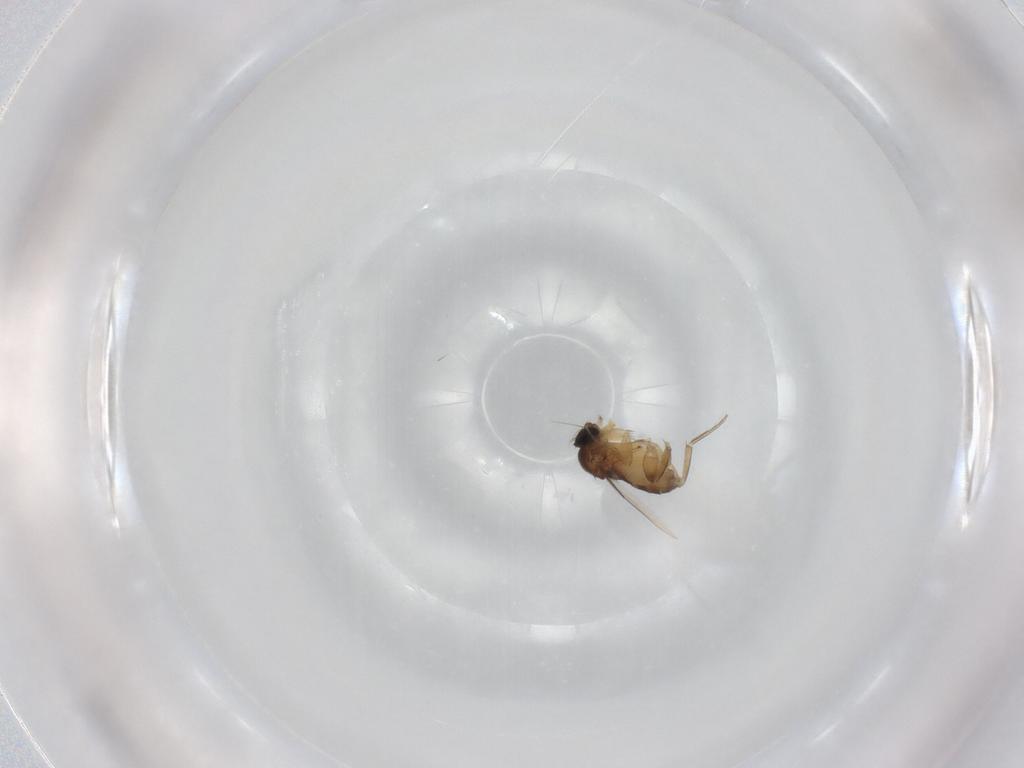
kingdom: Animalia
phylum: Arthropoda
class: Insecta
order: Diptera
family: Phoridae
